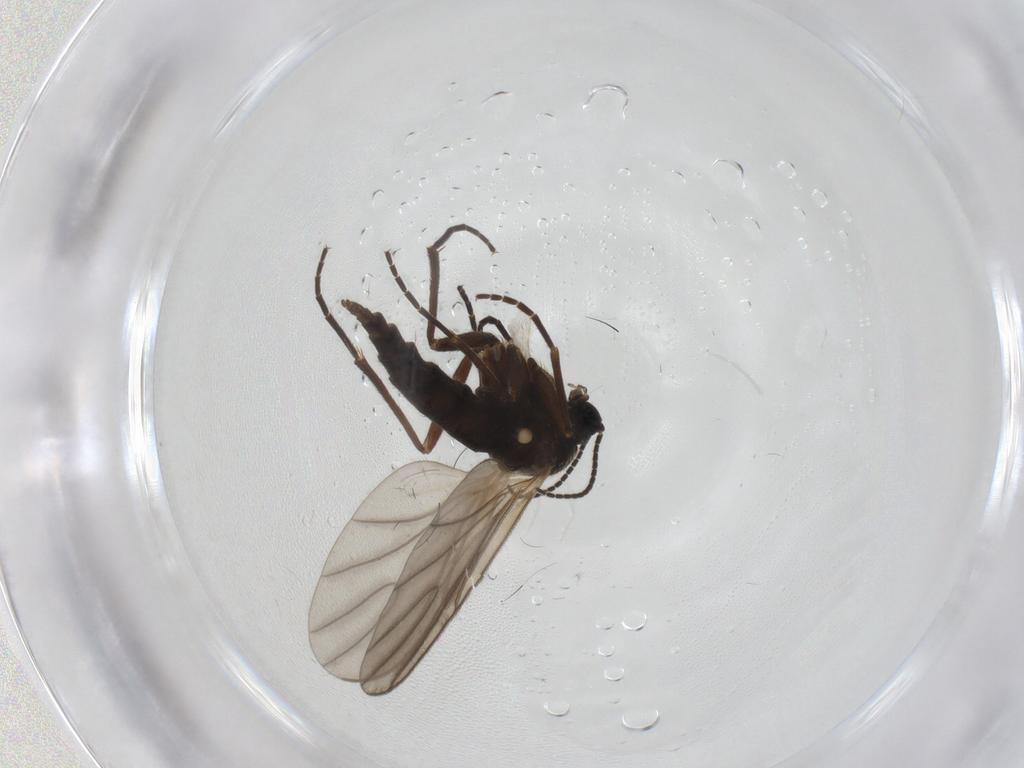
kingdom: Animalia
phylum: Arthropoda
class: Insecta
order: Diptera
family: Sciaridae
